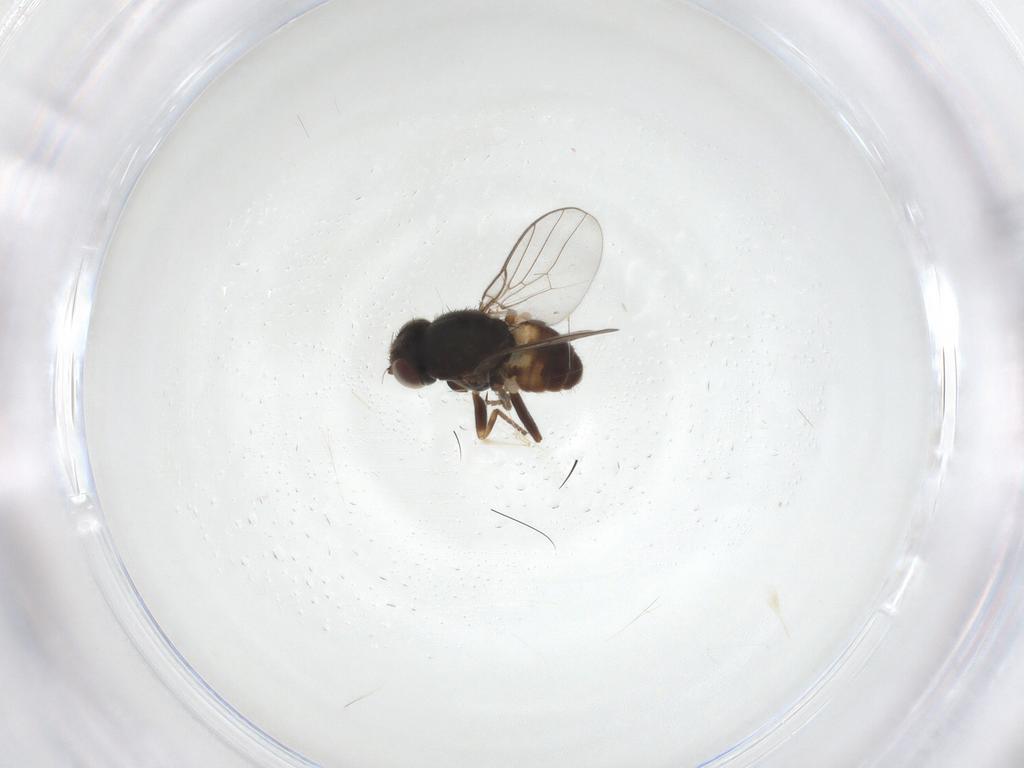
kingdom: Animalia
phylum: Arthropoda
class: Insecta
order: Diptera
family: Chloropidae
